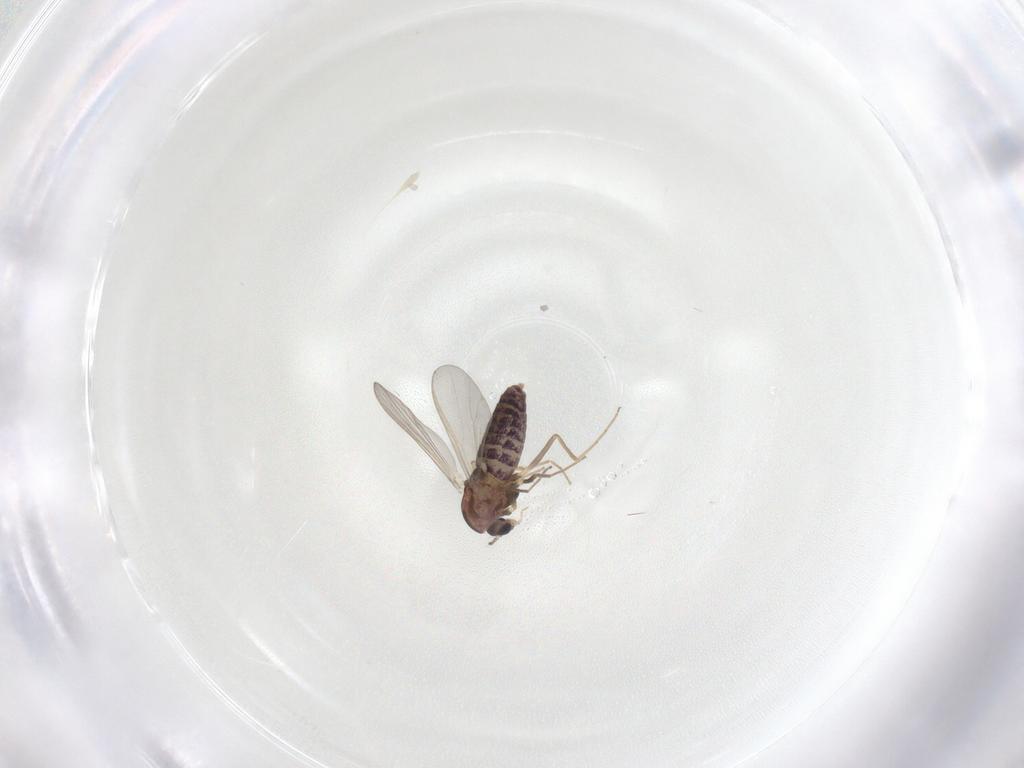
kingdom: Animalia
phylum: Arthropoda
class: Insecta
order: Diptera
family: Chironomidae
